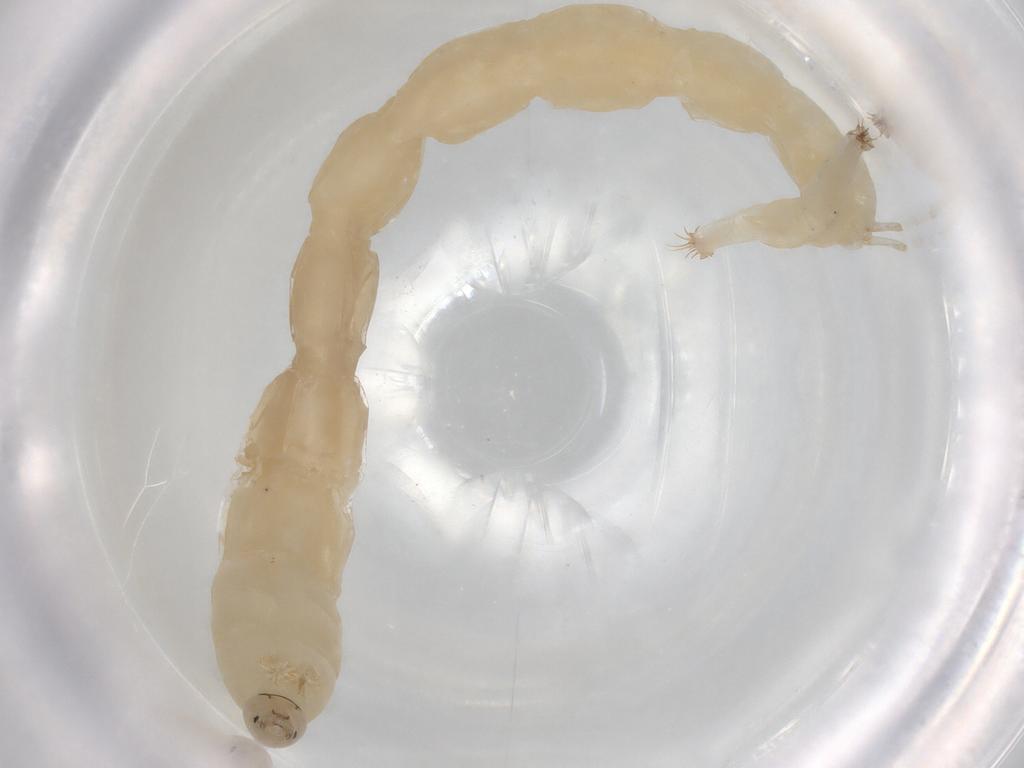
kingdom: Animalia
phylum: Arthropoda
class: Insecta
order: Diptera
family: Chironomidae
